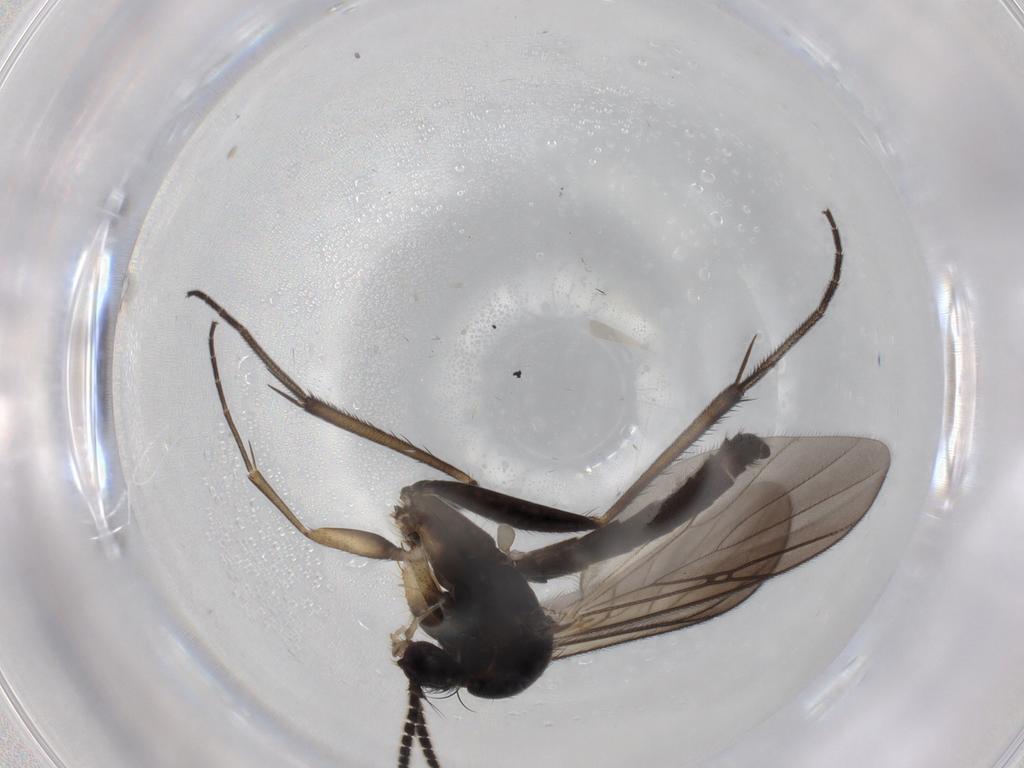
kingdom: Animalia
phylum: Arthropoda
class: Insecta
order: Diptera
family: Mycetophilidae
